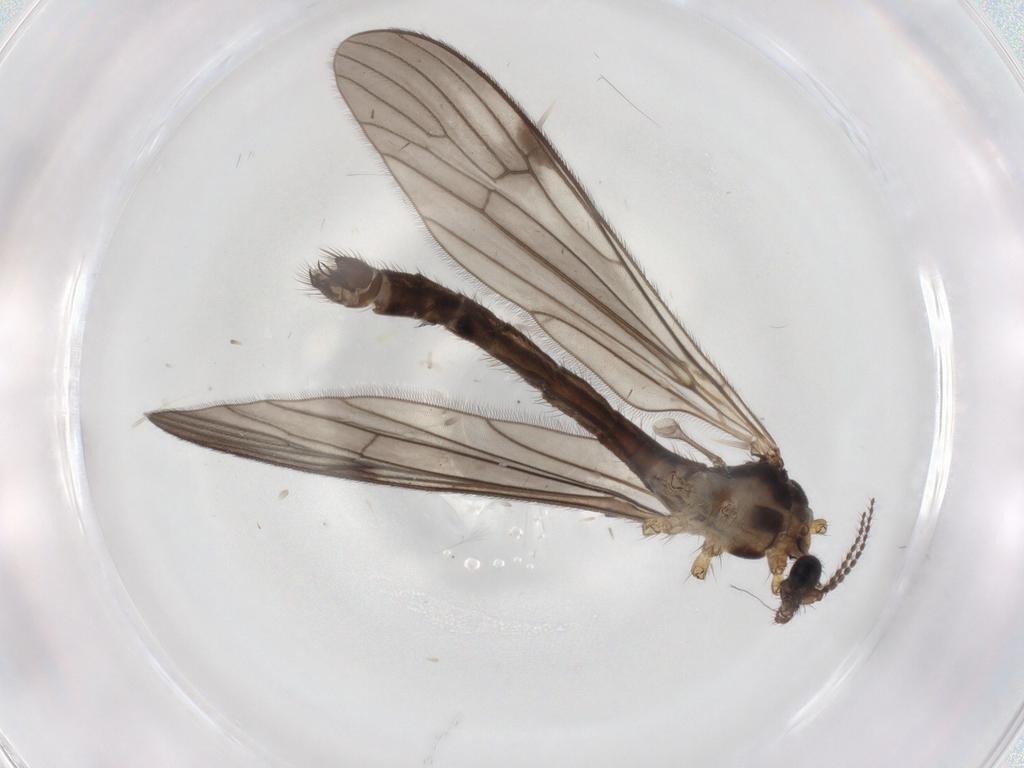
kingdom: Animalia
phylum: Arthropoda
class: Insecta
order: Diptera
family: Limoniidae
